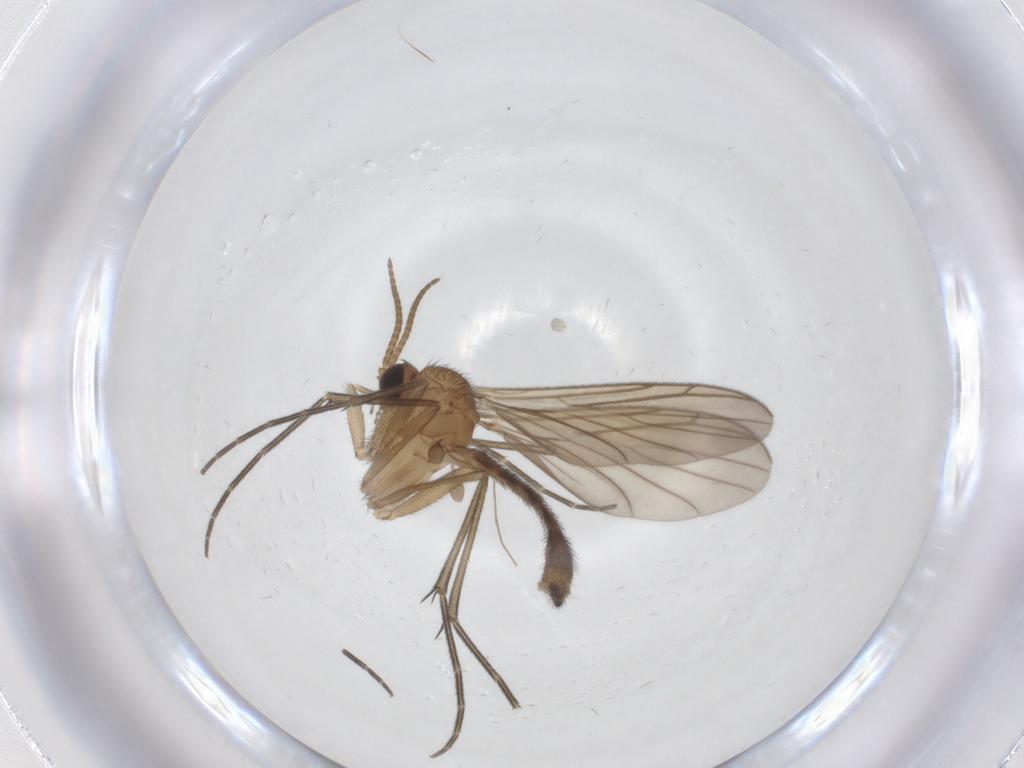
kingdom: Animalia
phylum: Arthropoda
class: Insecta
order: Diptera
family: Keroplatidae
